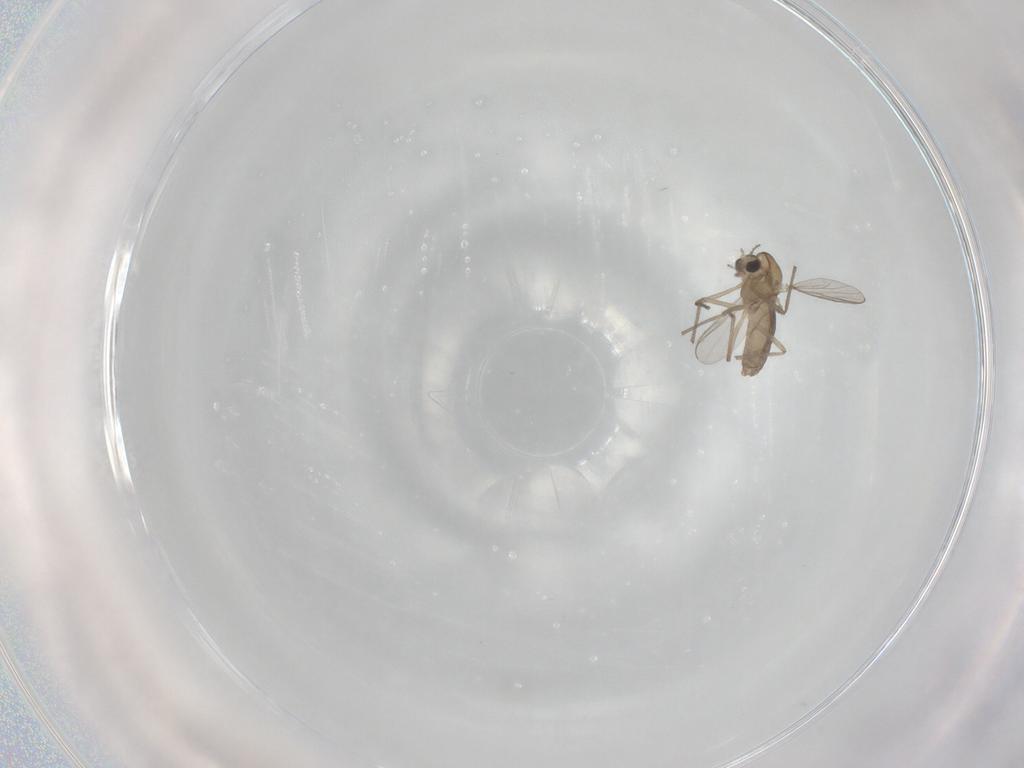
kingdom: Animalia
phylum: Arthropoda
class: Insecta
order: Diptera
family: Chironomidae
